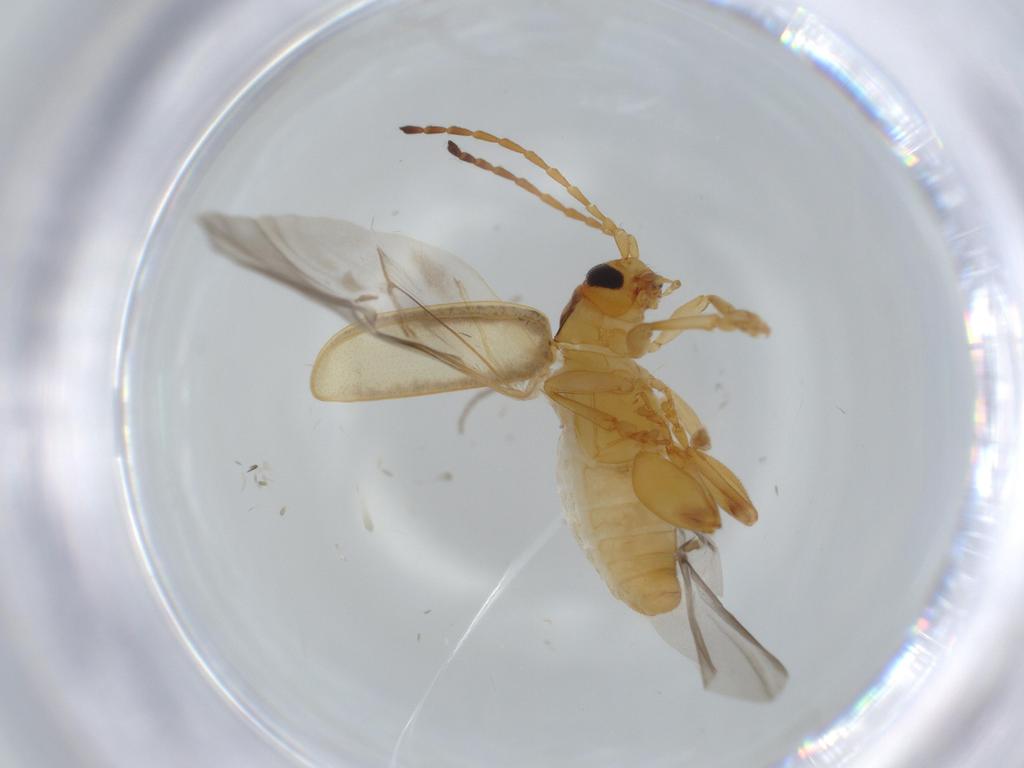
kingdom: Animalia
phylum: Arthropoda
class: Insecta
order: Coleoptera
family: Chrysomelidae
